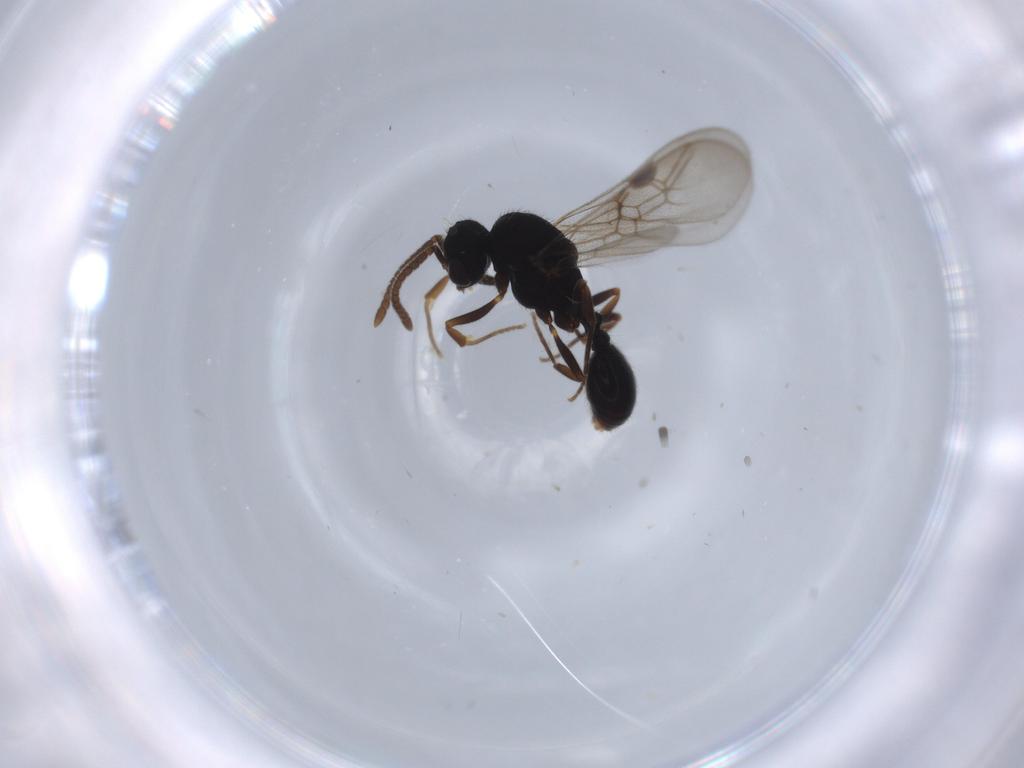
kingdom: Animalia
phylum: Arthropoda
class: Insecta
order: Hymenoptera
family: Formicidae
